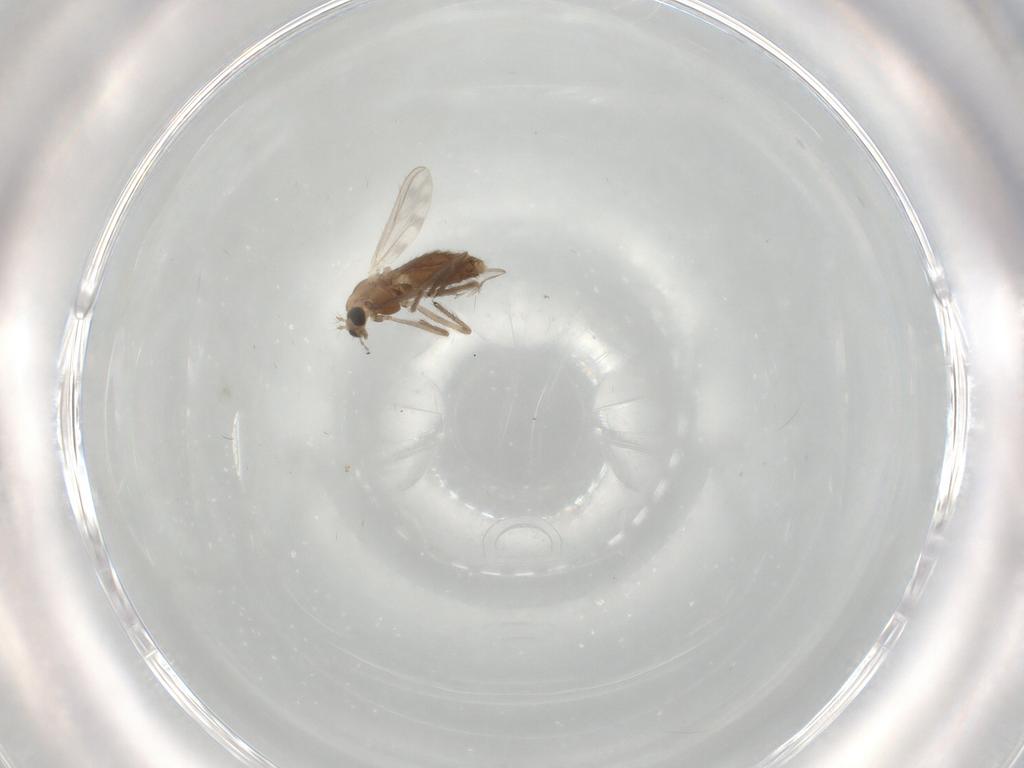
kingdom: Animalia
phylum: Arthropoda
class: Insecta
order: Diptera
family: Chironomidae
